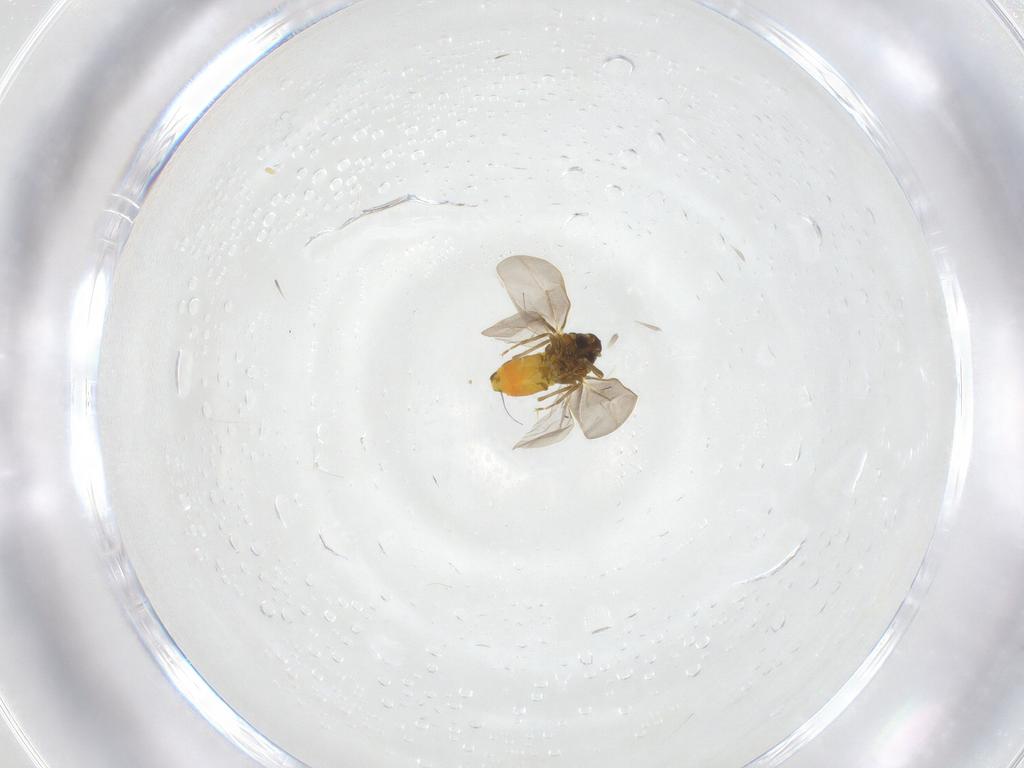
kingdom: Animalia
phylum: Arthropoda
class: Insecta
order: Hemiptera
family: Aleyrodidae
